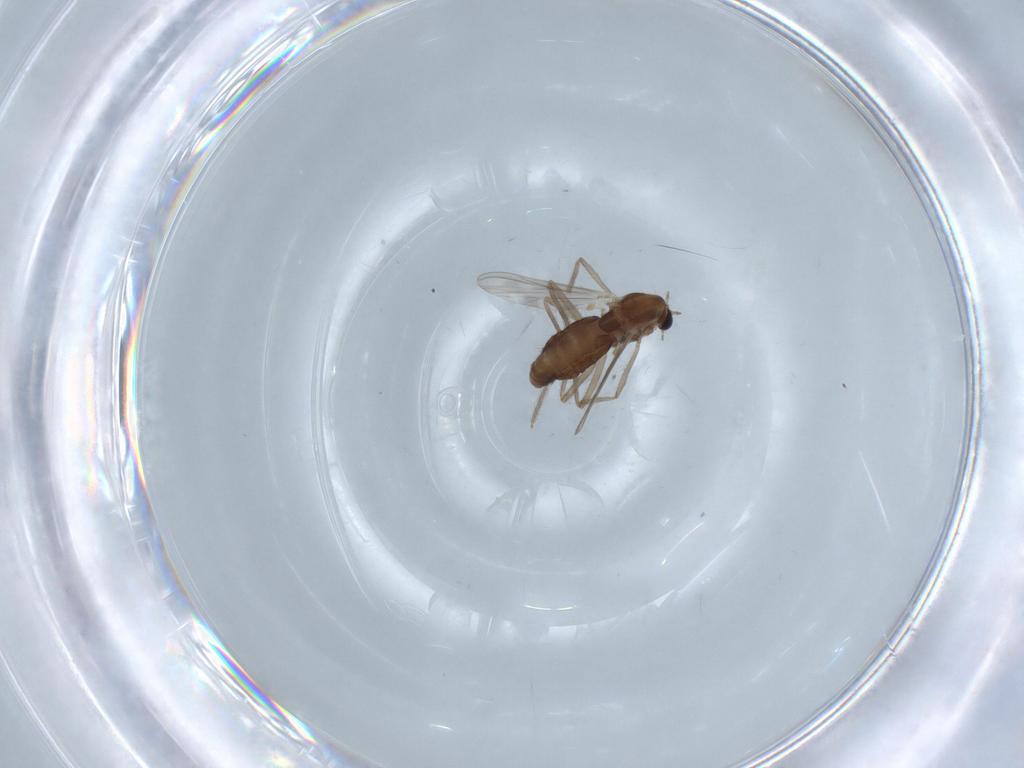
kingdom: Animalia
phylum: Arthropoda
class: Insecta
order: Diptera
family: Chironomidae
